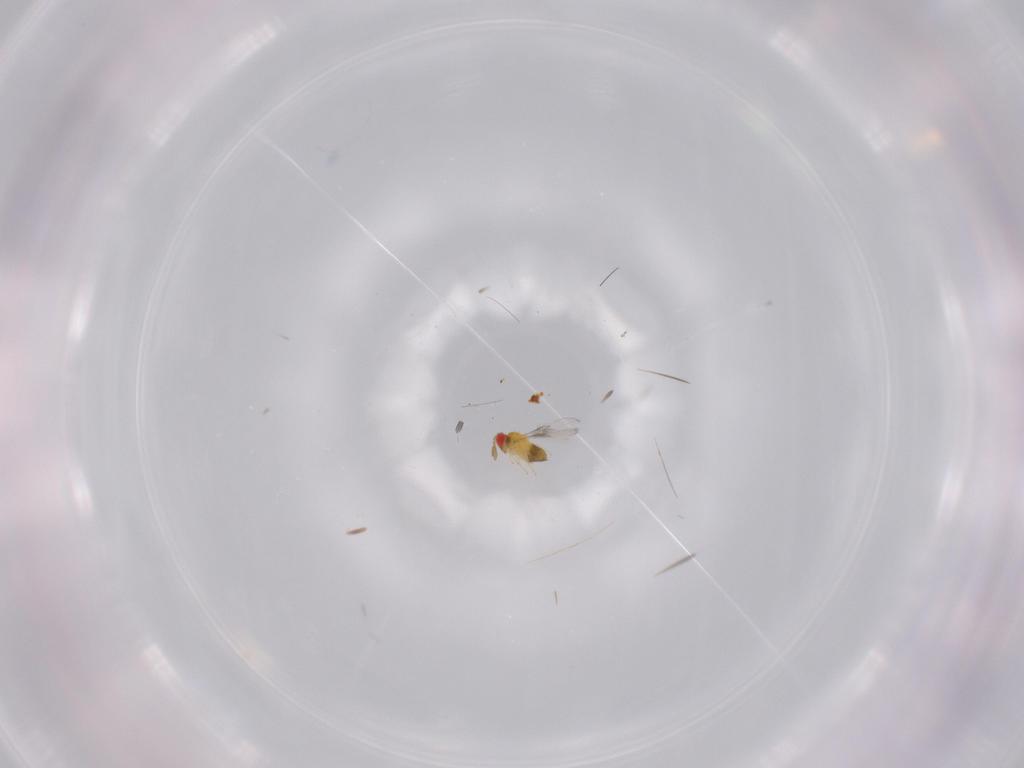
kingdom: Animalia
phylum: Arthropoda
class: Insecta
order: Hymenoptera
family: Trichogrammatidae
